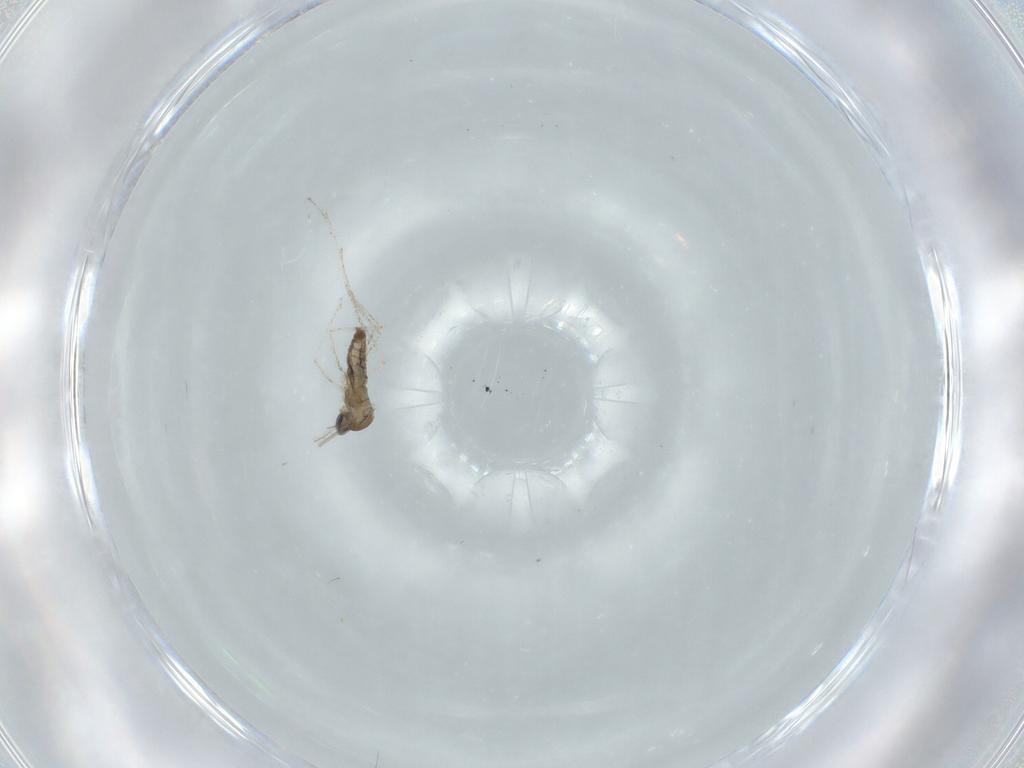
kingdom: Animalia
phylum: Arthropoda
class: Insecta
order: Diptera
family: Cecidomyiidae
